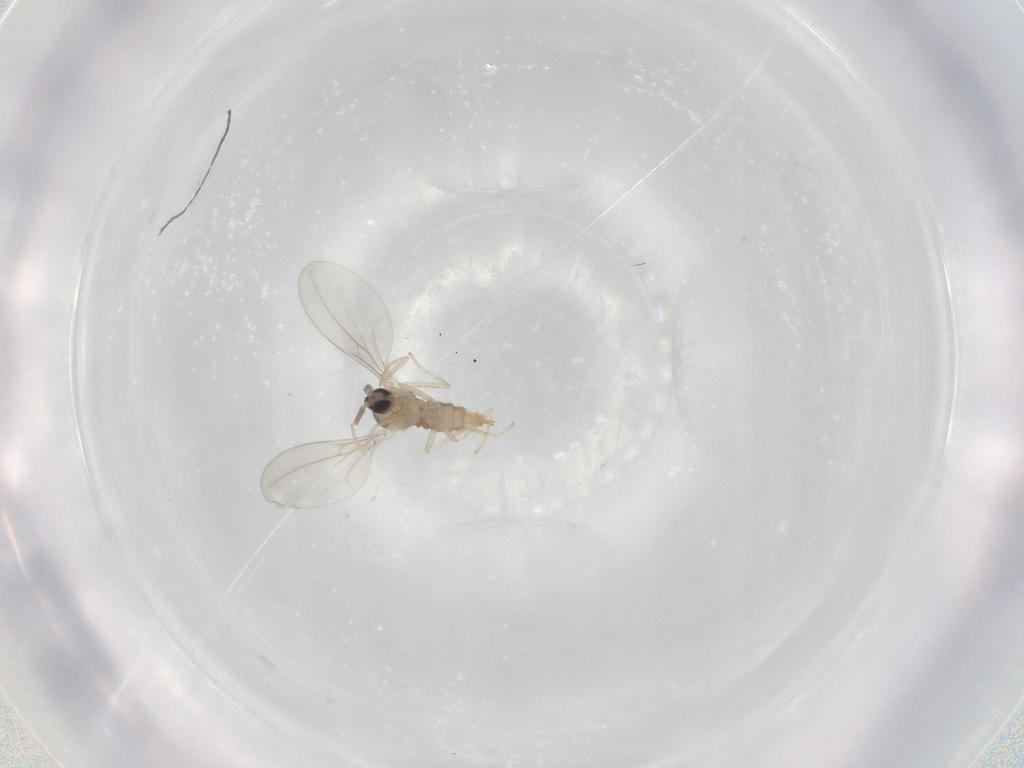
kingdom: Animalia
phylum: Arthropoda
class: Insecta
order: Diptera
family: Cecidomyiidae
